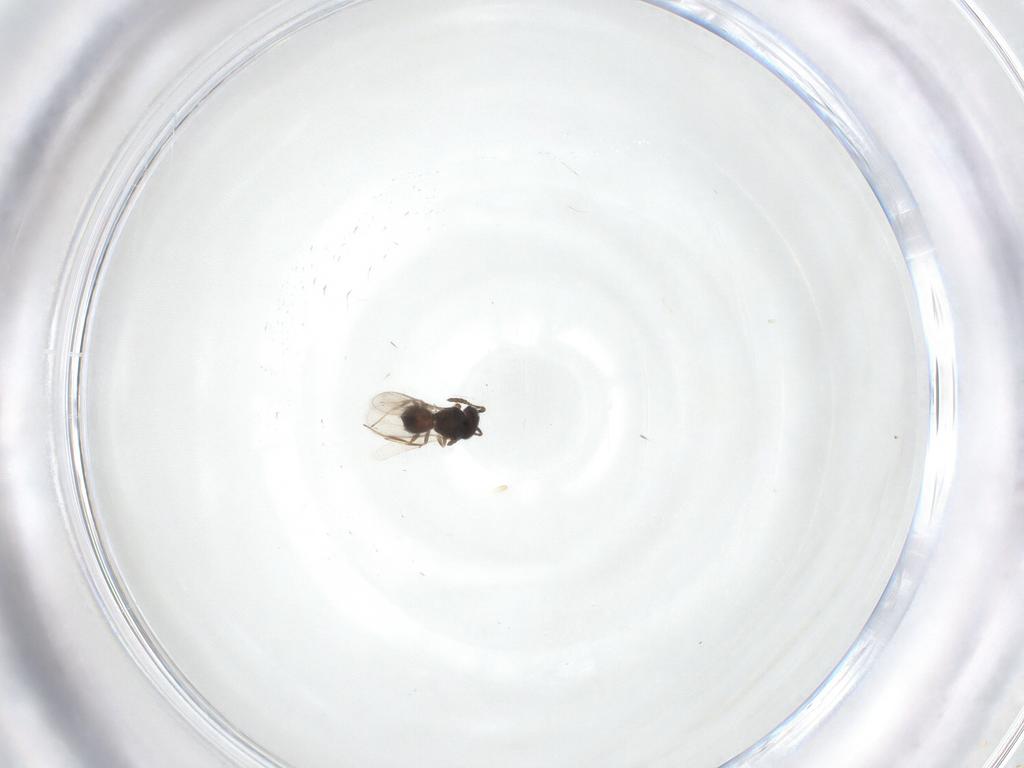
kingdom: Animalia
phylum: Arthropoda
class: Insecta
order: Hymenoptera
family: Scelionidae
